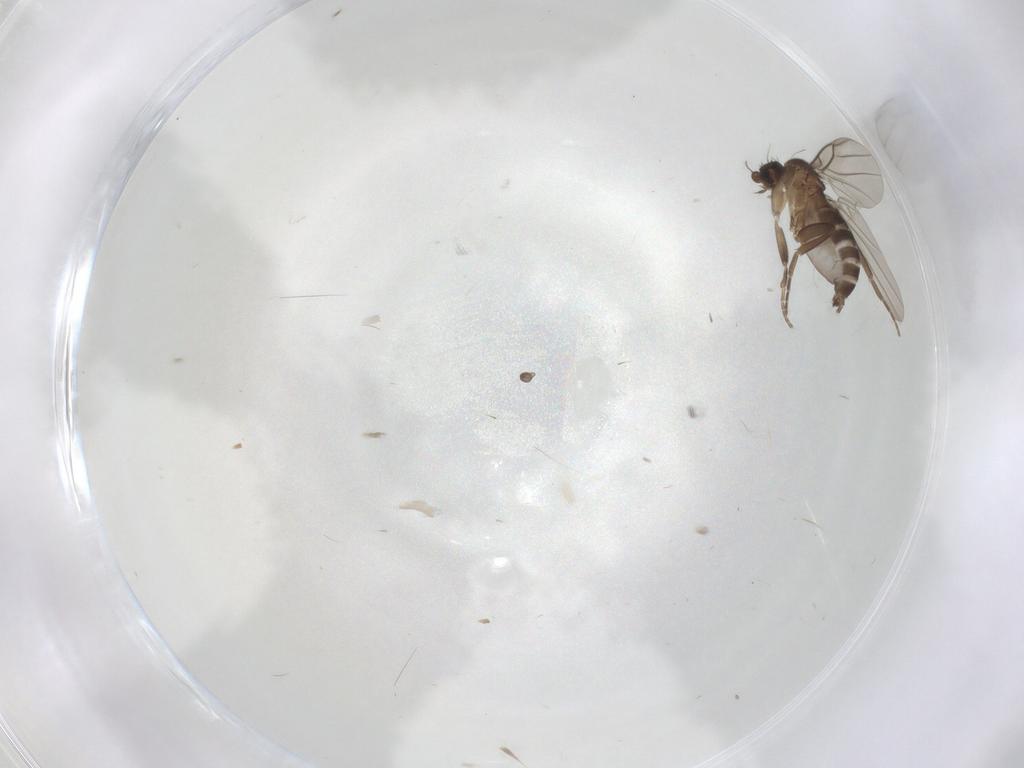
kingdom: Animalia
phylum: Arthropoda
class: Insecta
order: Diptera
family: Phoridae
